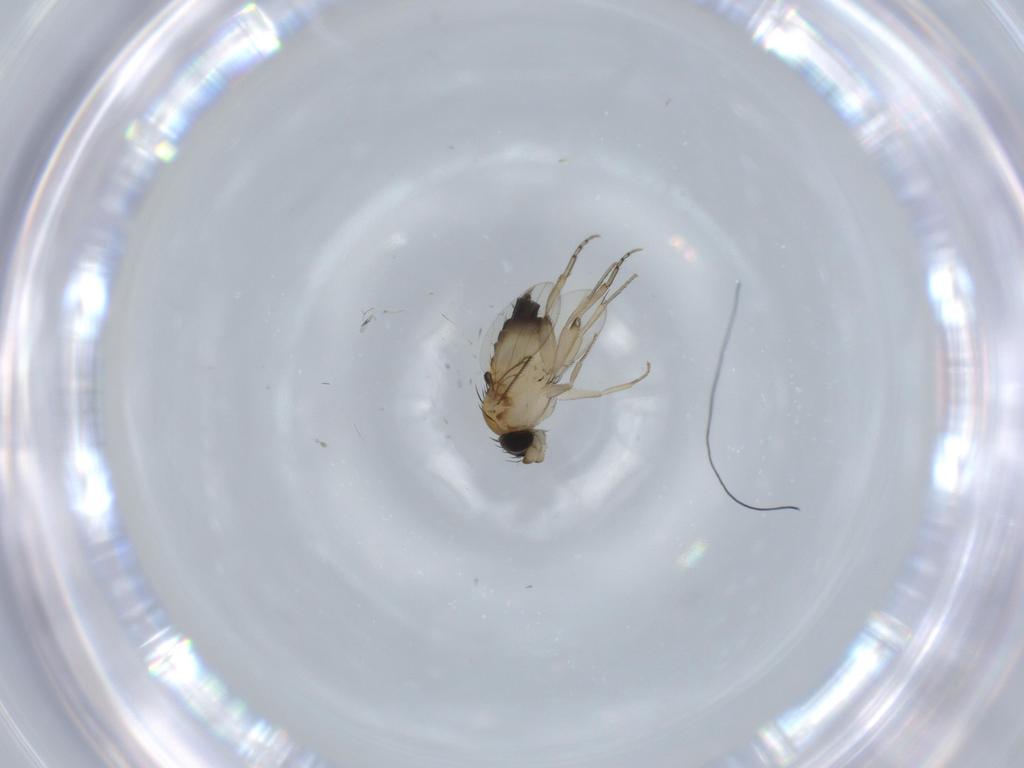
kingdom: Animalia
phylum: Arthropoda
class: Insecta
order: Diptera
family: Phoridae
